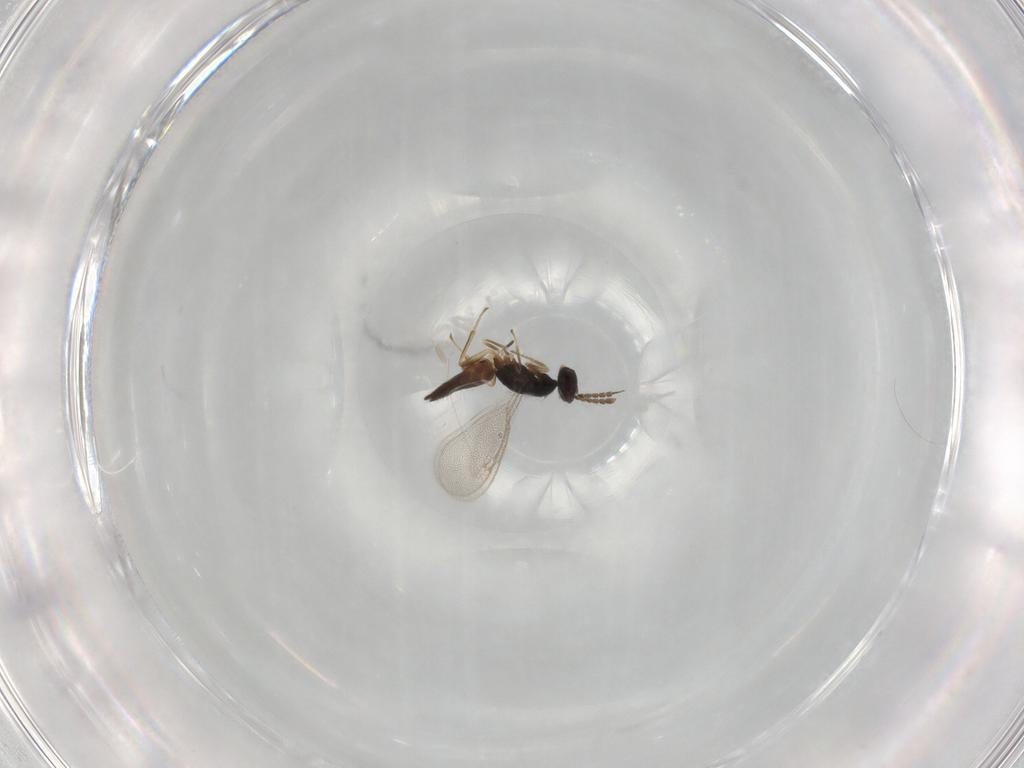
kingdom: Animalia
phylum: Arthropoda
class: Insecta
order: Hymenoptera
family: Eulophidae
